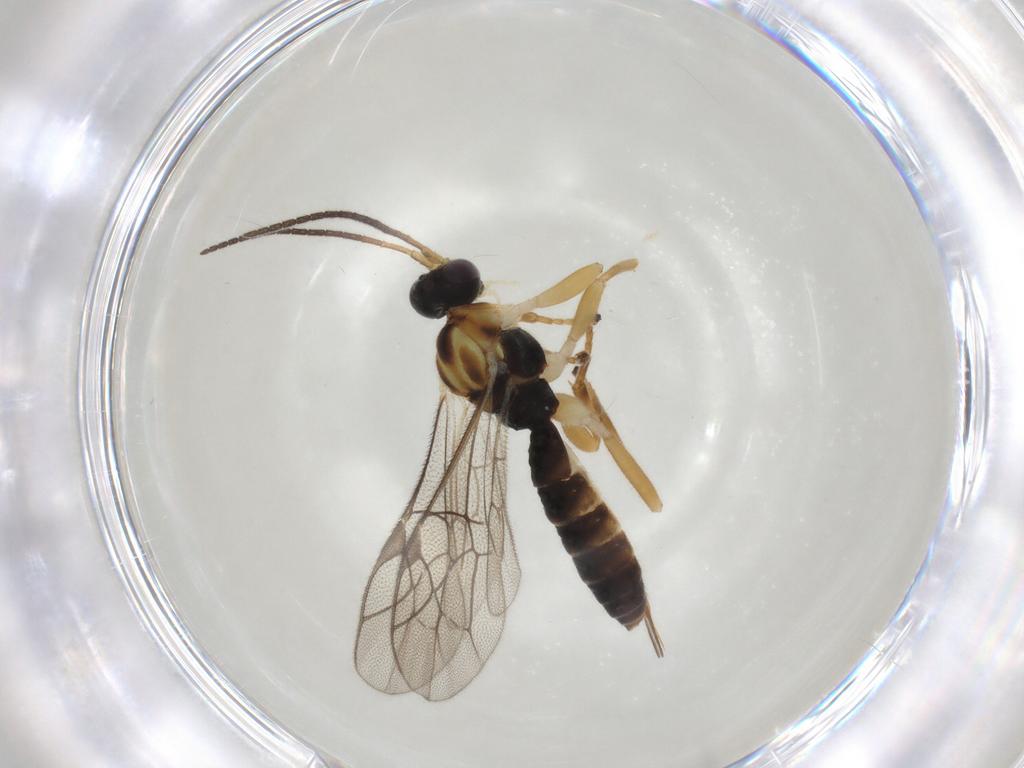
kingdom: Animalia
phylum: Arthropoda
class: Insecta
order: Hymenoptera
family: Ichneumonidae
